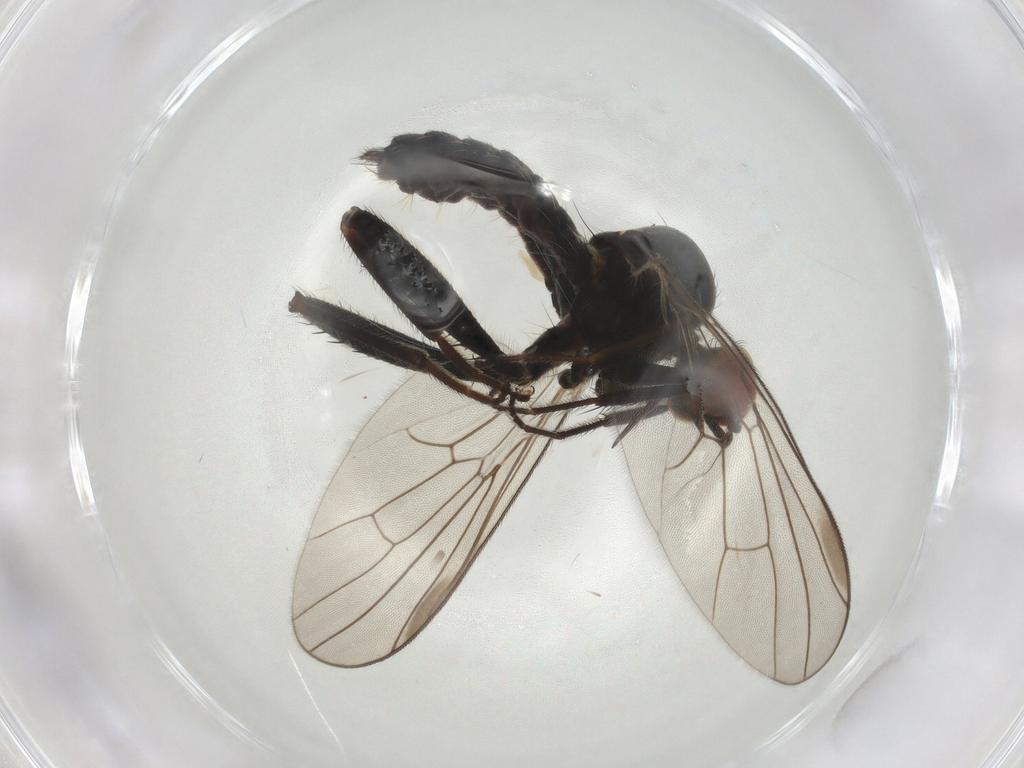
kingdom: Animalia
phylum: Arthropoda
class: Insecta
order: Diptera
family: Hybotidae
